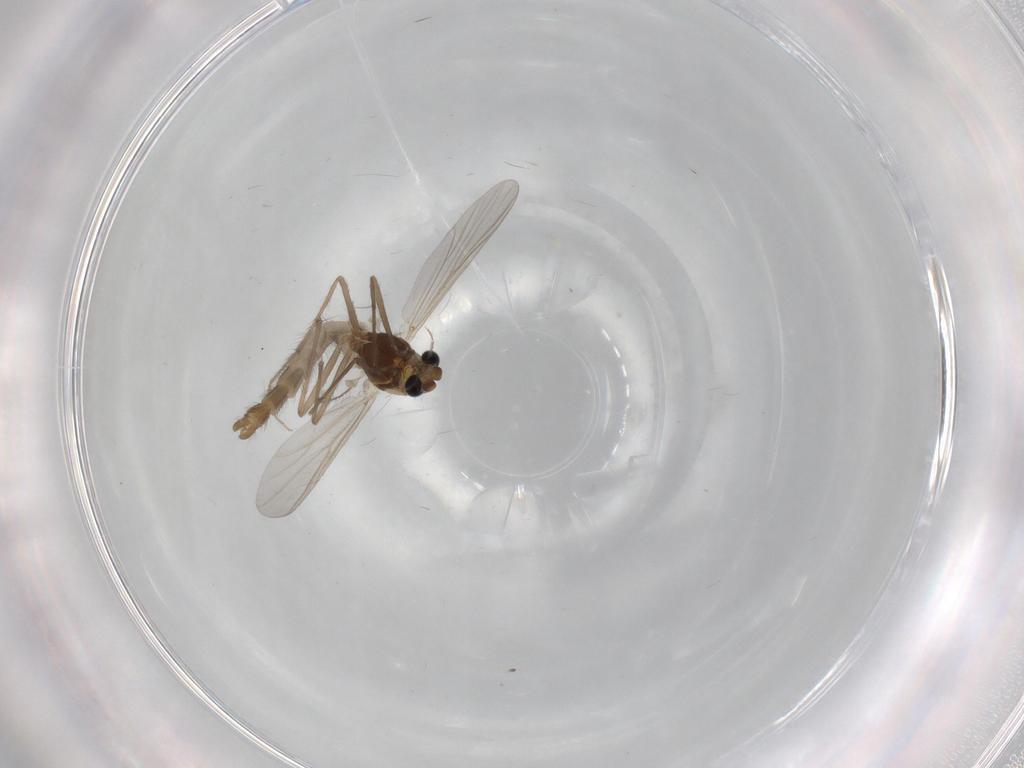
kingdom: Animalia
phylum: Arthropoda
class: Insecta
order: Diptera
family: Chironomidae
